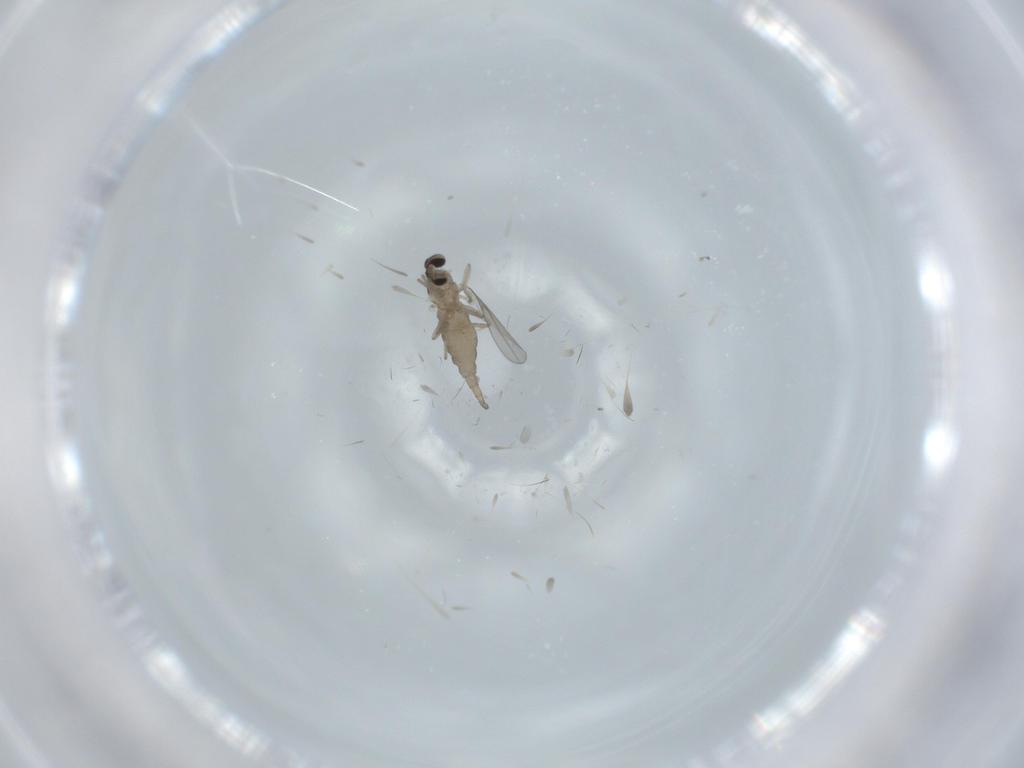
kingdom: Animalia
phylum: Arthropoda
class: Insecta
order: Diptera
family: Cecidomyiidae
